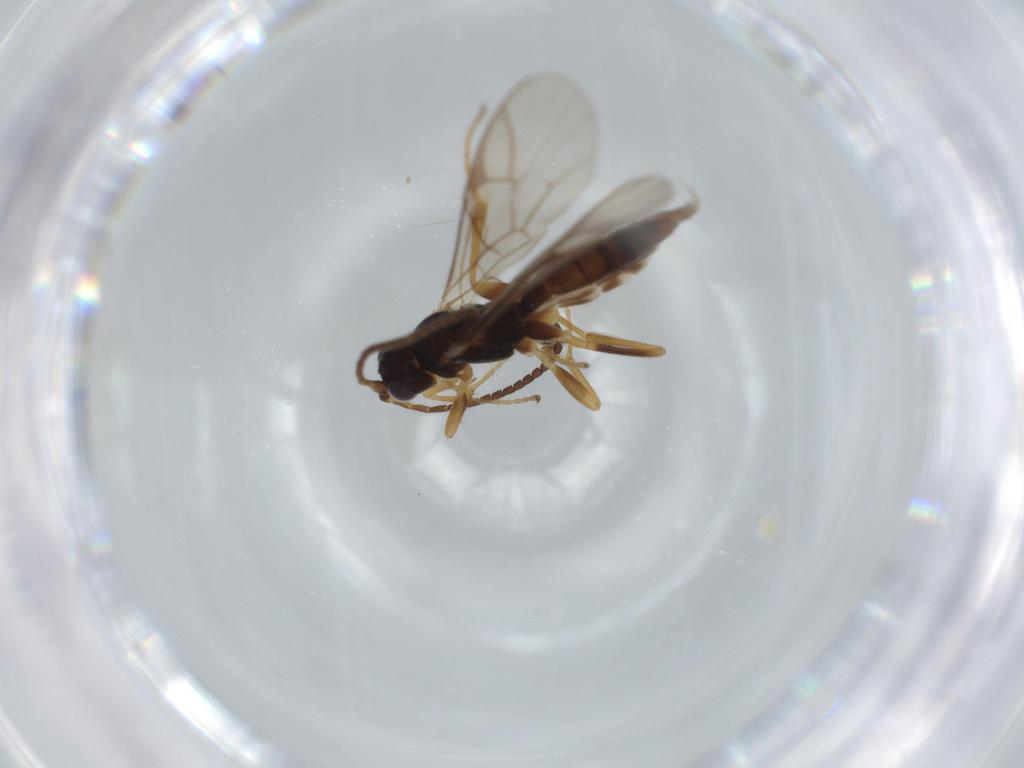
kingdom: Animalia
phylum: Arthropoda
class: Insecta
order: Hymenoptera
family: Ichneumonidae
